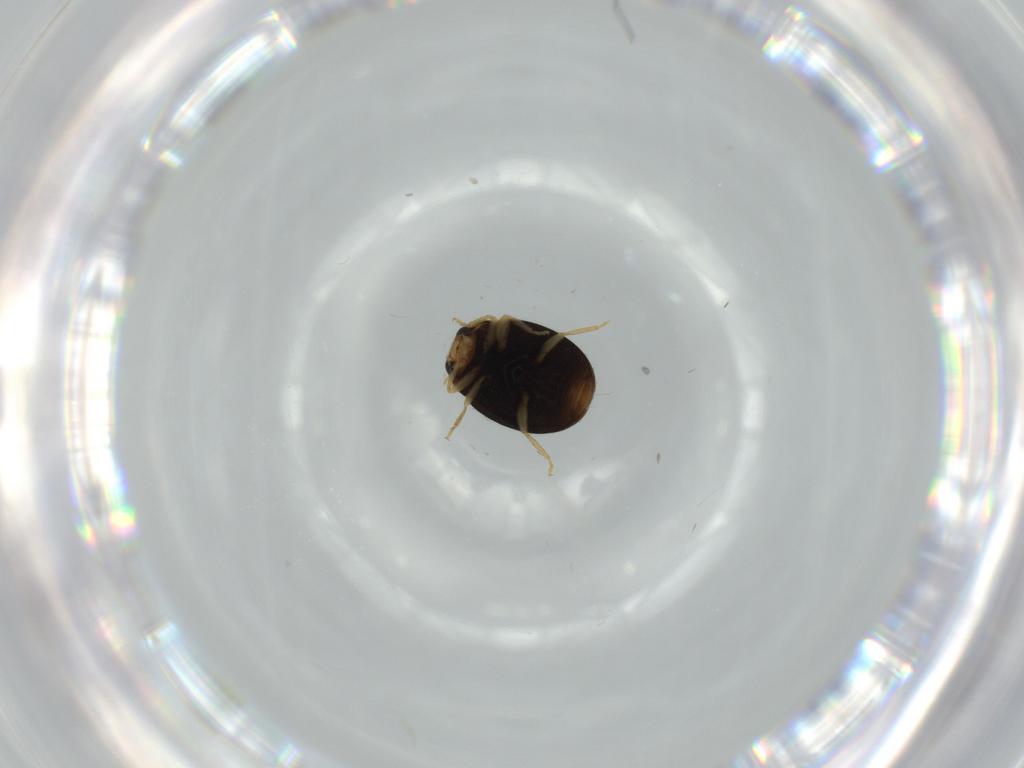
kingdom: Animalia
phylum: Arthropoda
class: Insecta
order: Coleoptera
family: Coccinellidae
